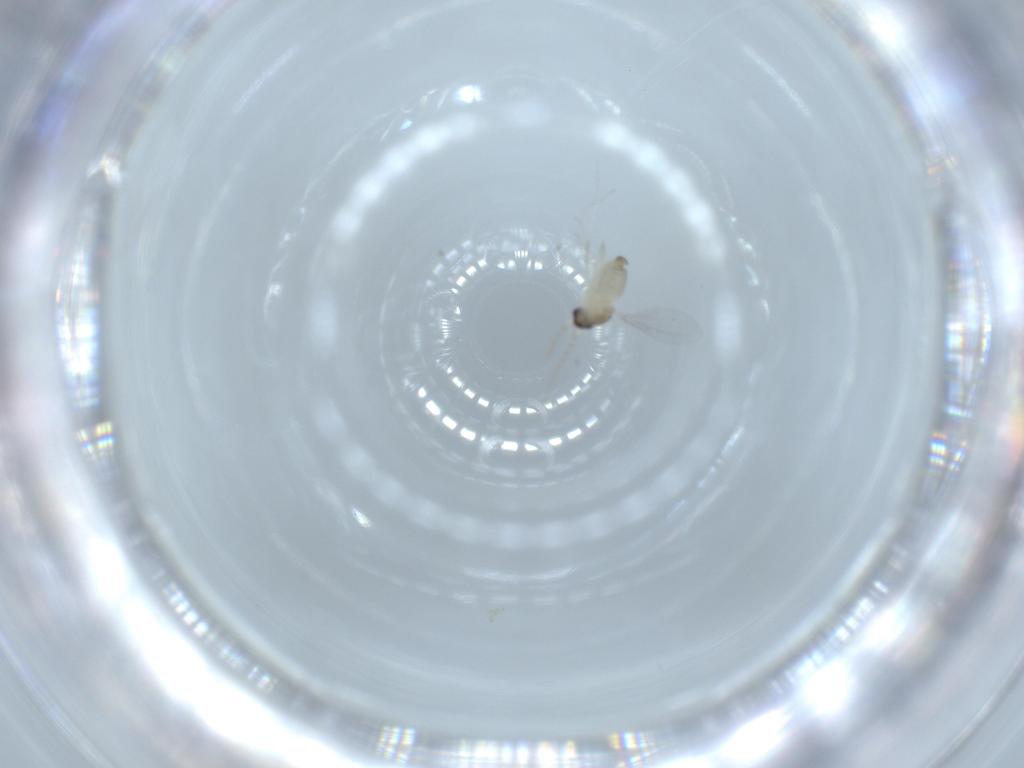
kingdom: Animalia
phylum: Arthropoda
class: Insecta
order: Diptera
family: Cecidomyiidae
